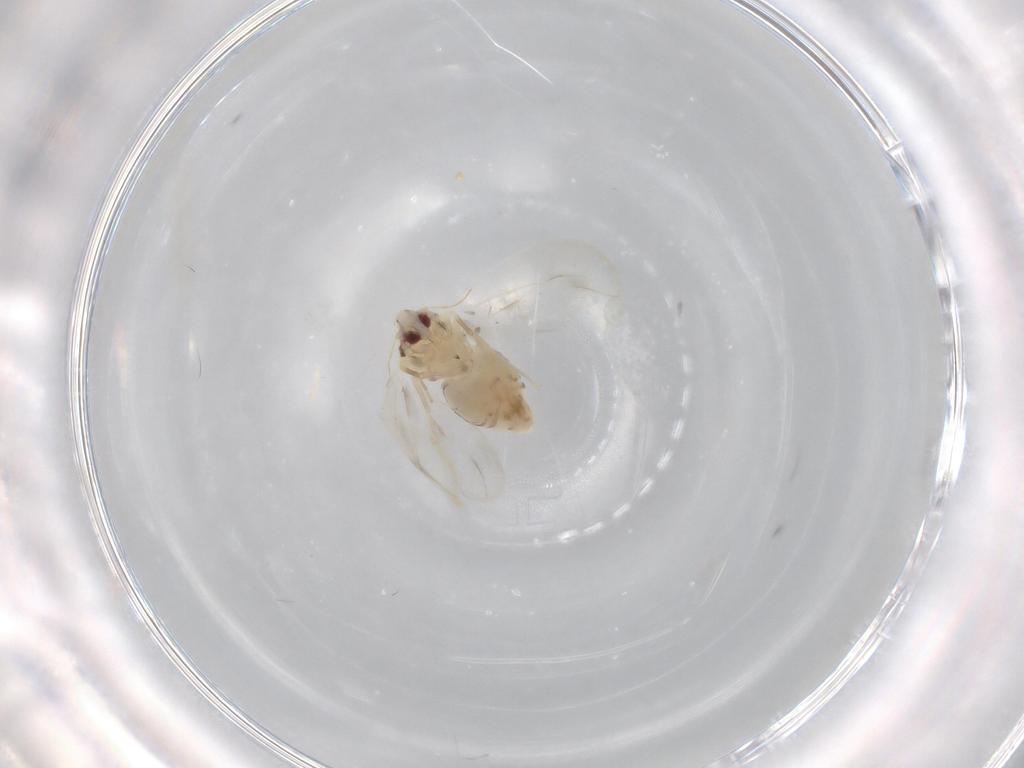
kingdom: Animalia
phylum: Arthropoda
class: Insecta
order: Hemiptera
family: Aleyrodidae
